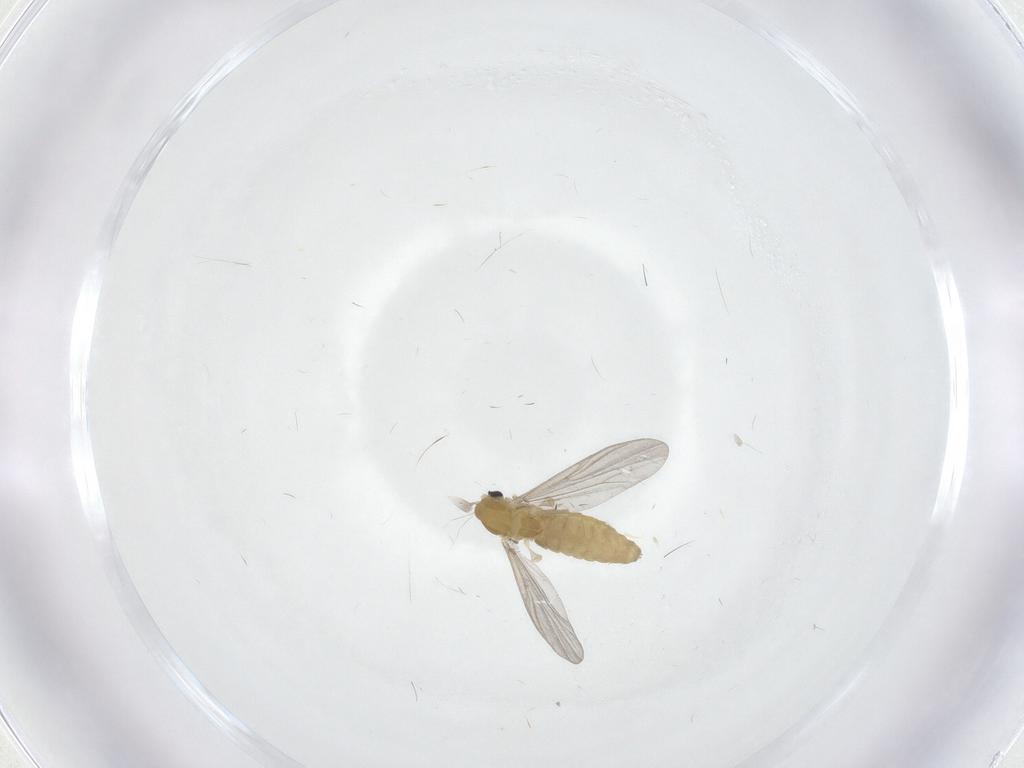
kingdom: Animalia
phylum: Arthropoda
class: Insecta
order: Diptera
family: Chironomidae
